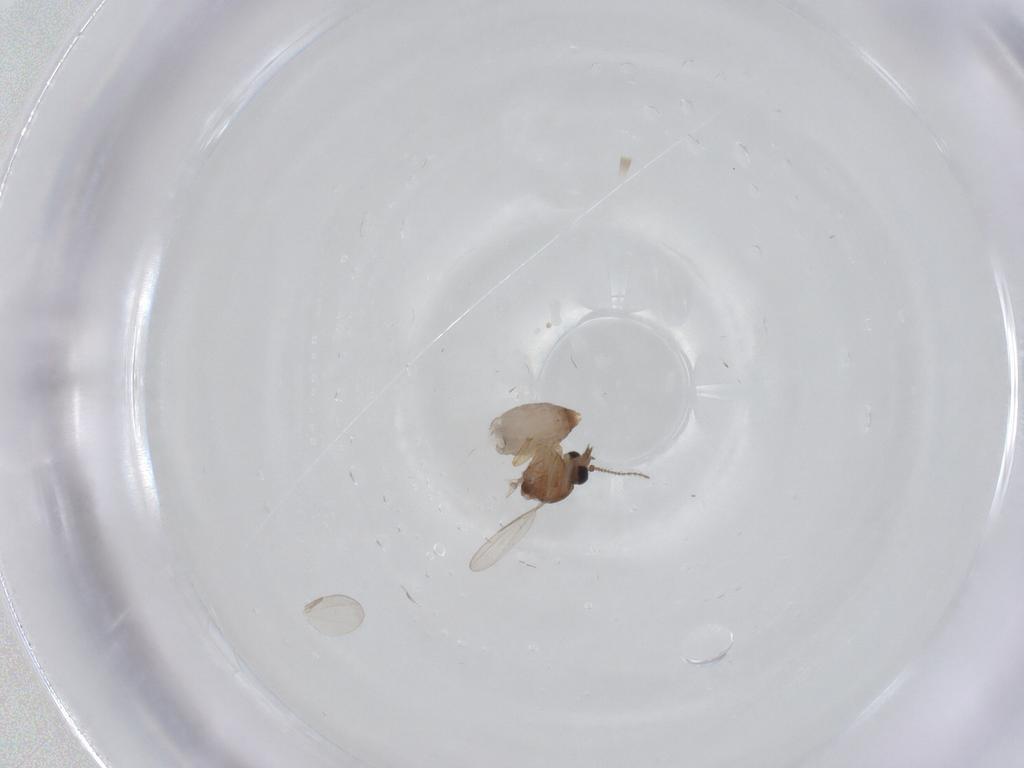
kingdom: Animalia
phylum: Arthropoda
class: Insecta
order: Diptera
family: Ceratopogonidae
